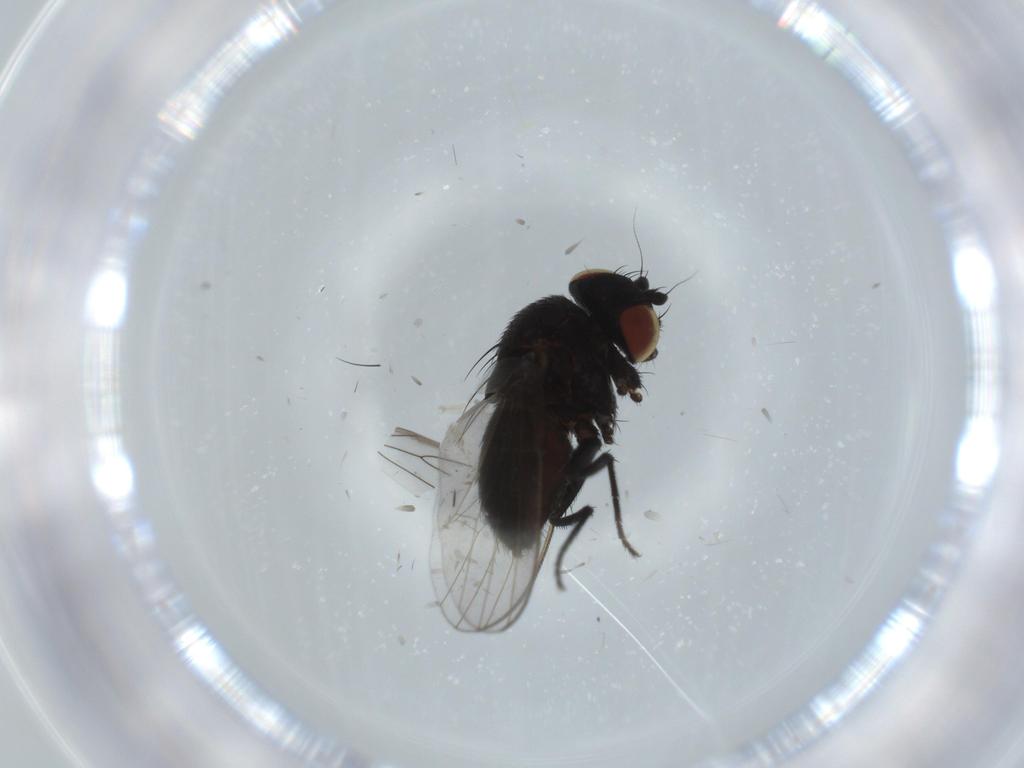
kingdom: Animalia
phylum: Arthropoda
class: Insecta
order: Diptera
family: Milichiidae
